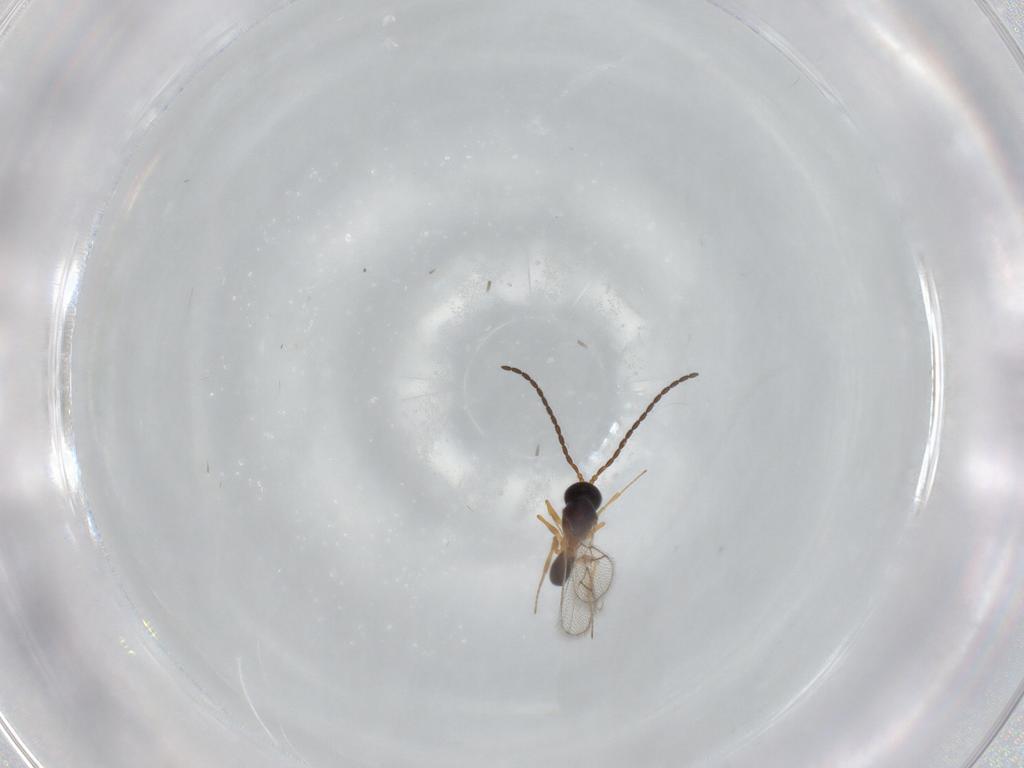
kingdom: Animalia
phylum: Arthropoda
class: Insecta
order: Hymenoptera
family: Figitidae
